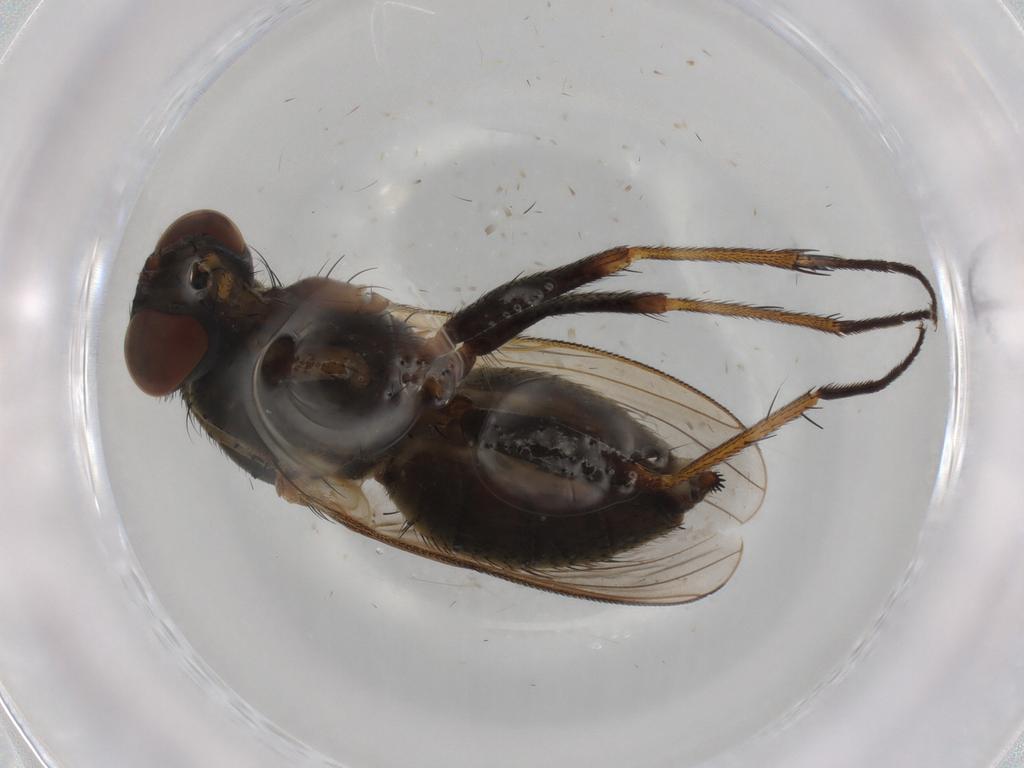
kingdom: Animalia
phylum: Arthropoda
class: Insecta
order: Diptera
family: Muscidae
